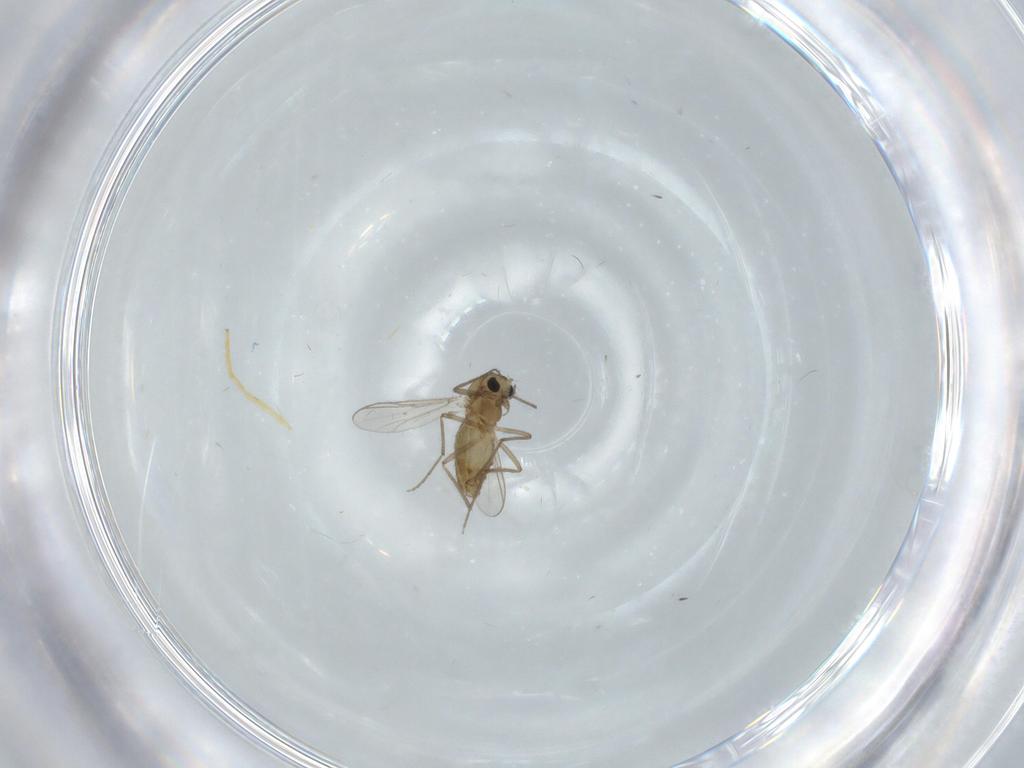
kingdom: Animalia
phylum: Arthropoda
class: Insecta
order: Diptera
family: Chironomidae
